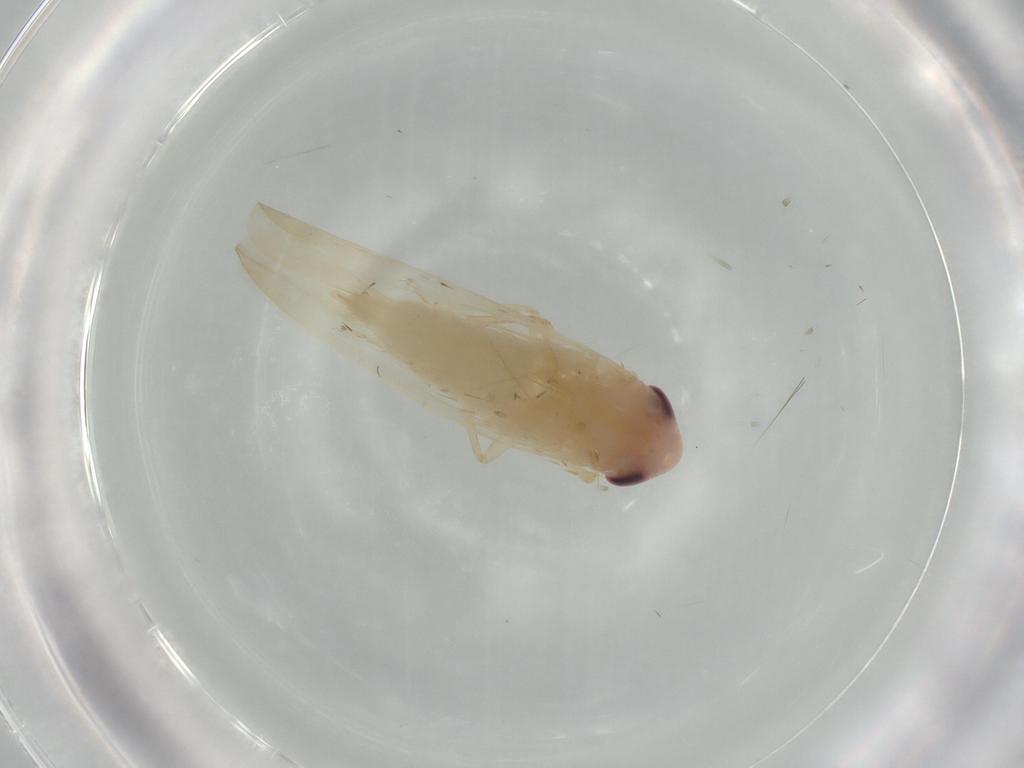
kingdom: Animalia
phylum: Arthropoda
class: Insecta
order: Hemiptera
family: Cicadellidae
